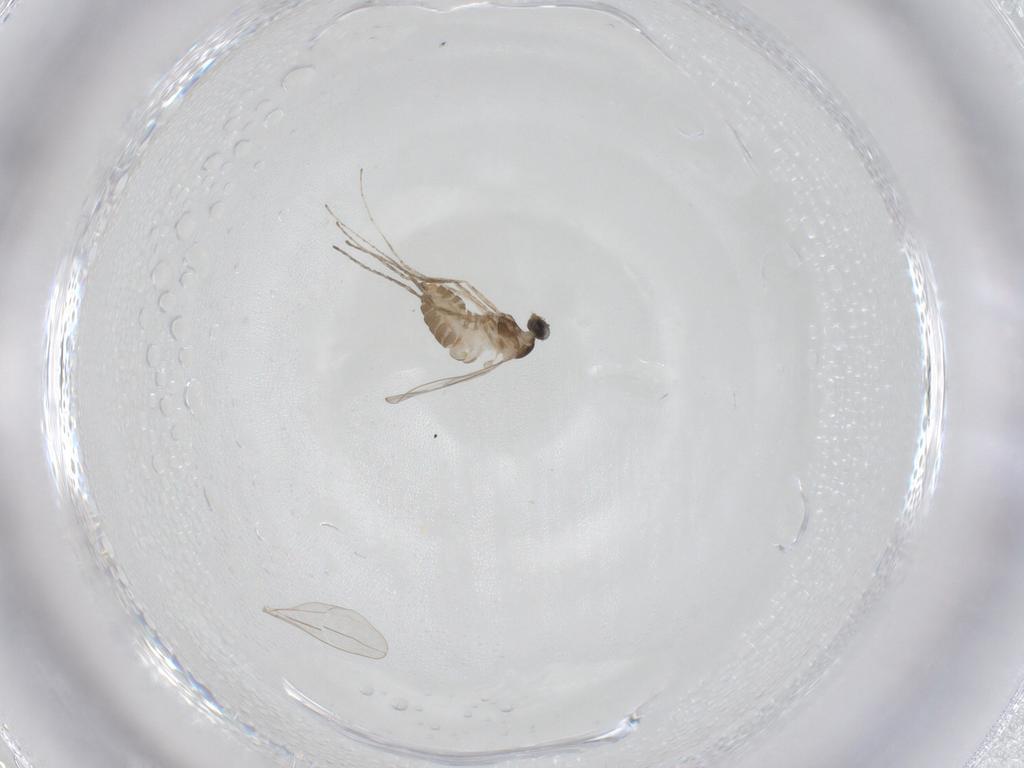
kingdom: Animalia
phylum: Arthropoda
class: Insecta
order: Diptera
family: Cecidomyiidae
